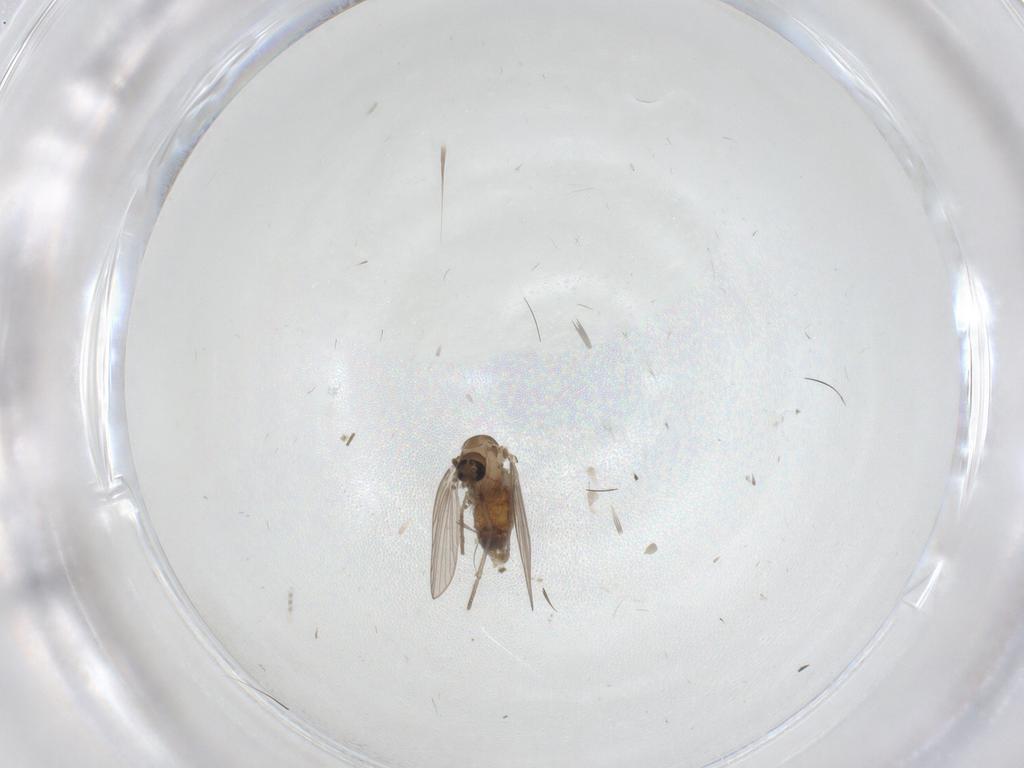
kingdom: Animalia
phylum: Arthropoda
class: Insecta
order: Diptera
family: Psychodidae
